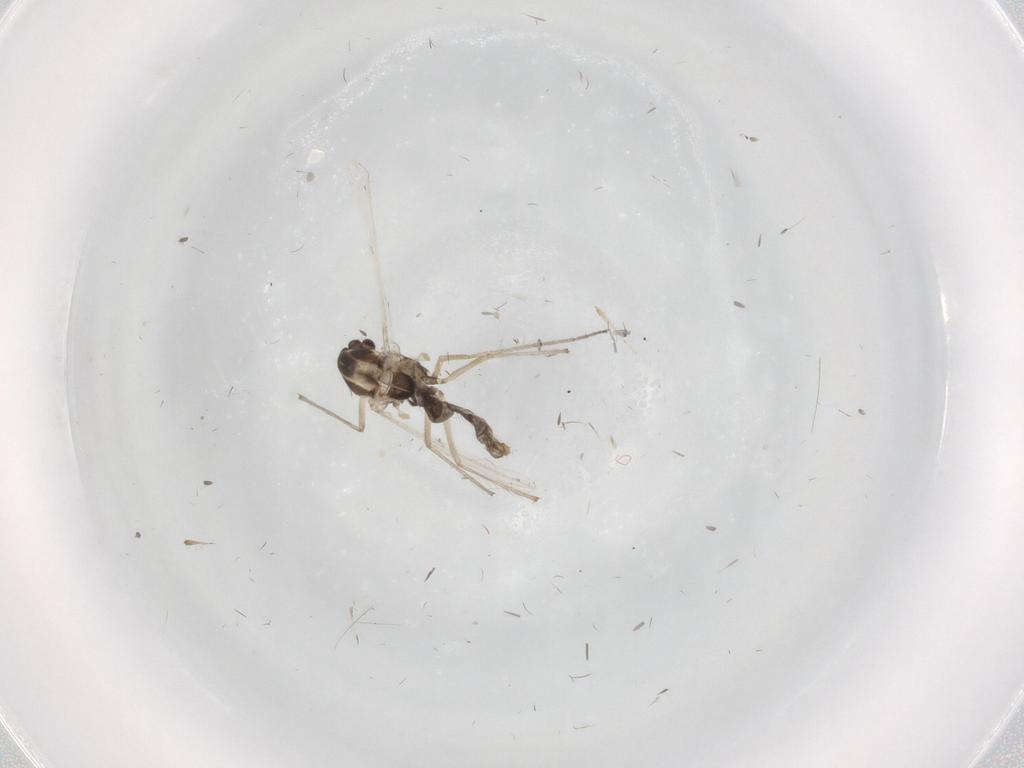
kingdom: Animalia
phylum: Arthropoda
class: Insecta
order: Diptera
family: Chironomidae
